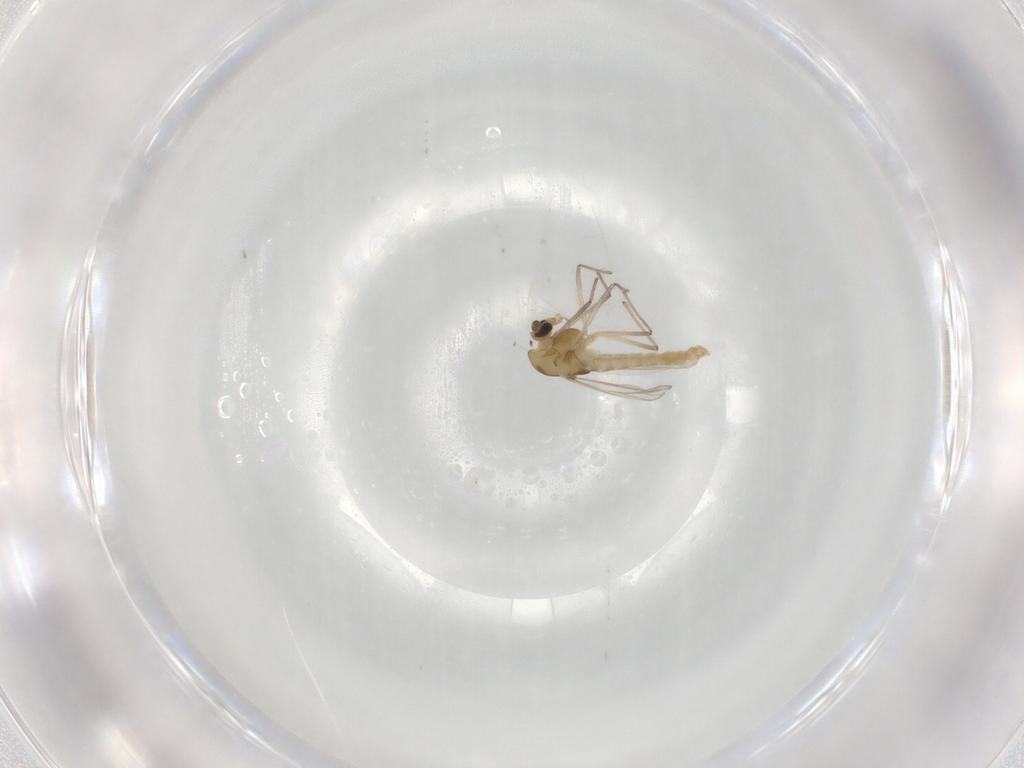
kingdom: Animalia
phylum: Arthropoda
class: Insecta
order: Diptera
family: Cecidomyiidae
